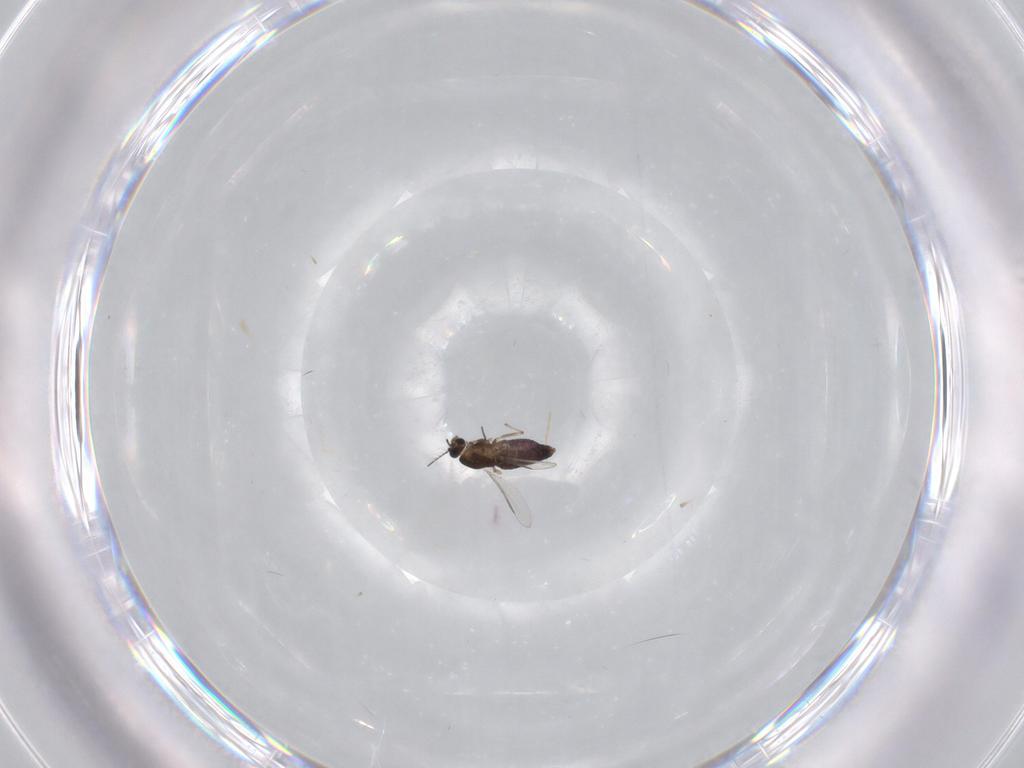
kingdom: Animalia
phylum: Arthropoda
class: Insecta
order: Diptera
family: Chironomidae
